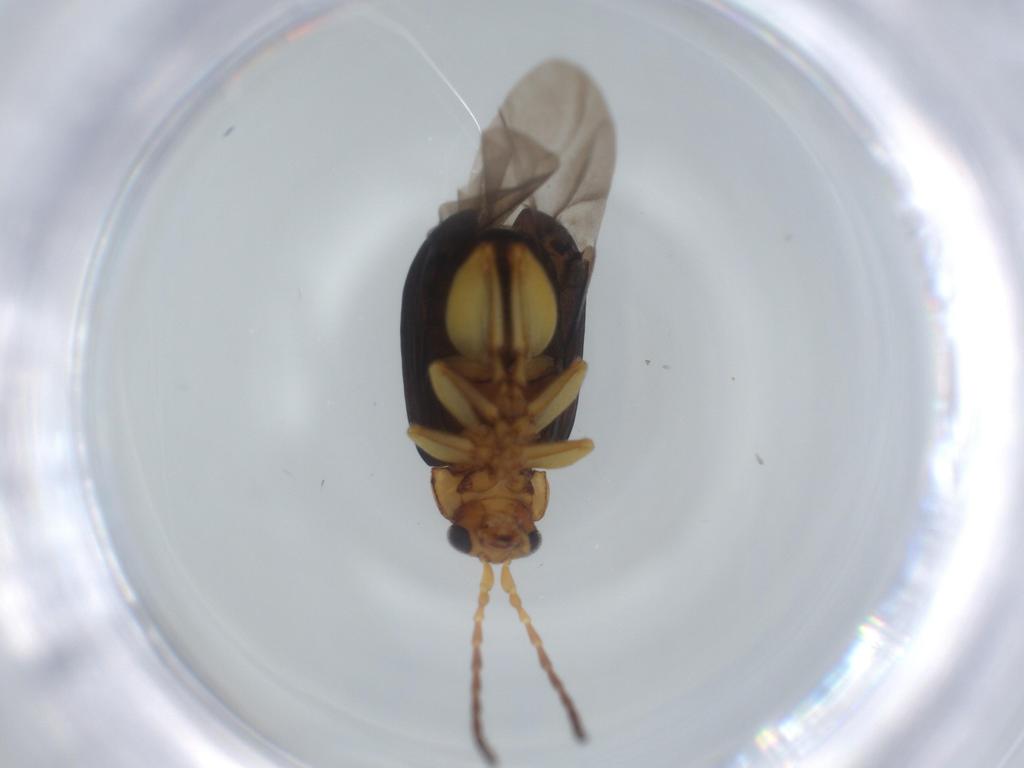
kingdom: Animalia
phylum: Arthropoda
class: Insecta
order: Coleoptera
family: Chrysomelidae
